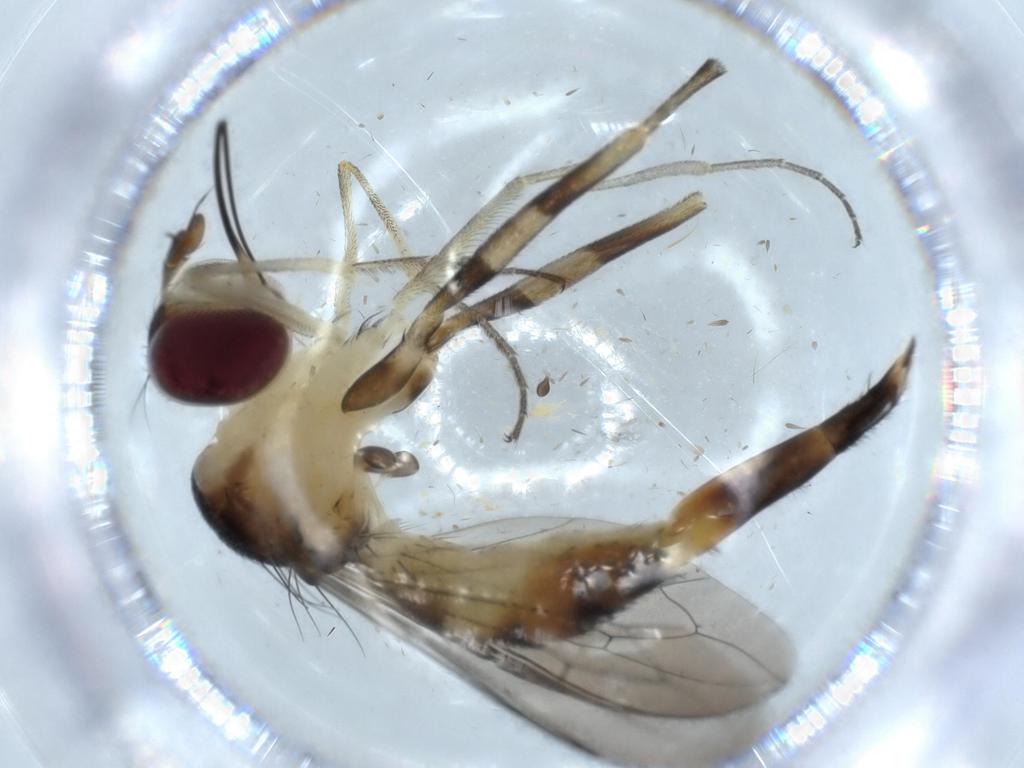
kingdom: Animalia
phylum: Arthropoda
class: Insecta
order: Diptera
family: Conopidae
